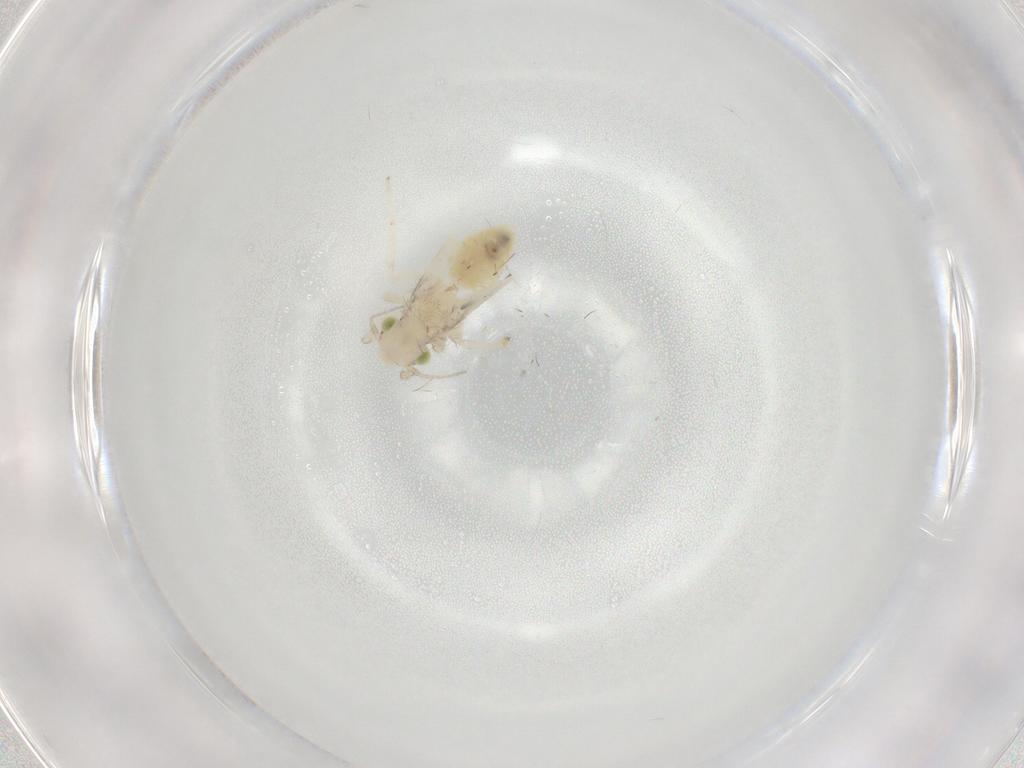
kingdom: Animalia
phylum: Arthropoda
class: Insecta
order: Psocodea
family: Lepidopsocidae
